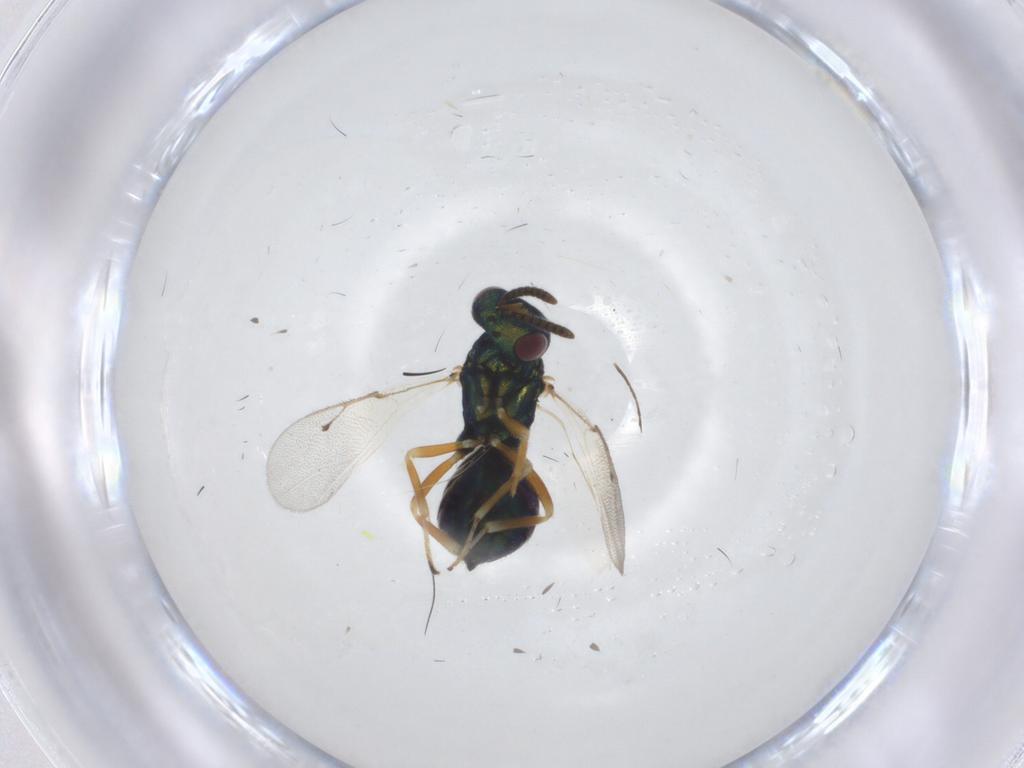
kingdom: Animalia
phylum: Arthropoda
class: Insecta
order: Hymenoptera
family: Pteromalidae
